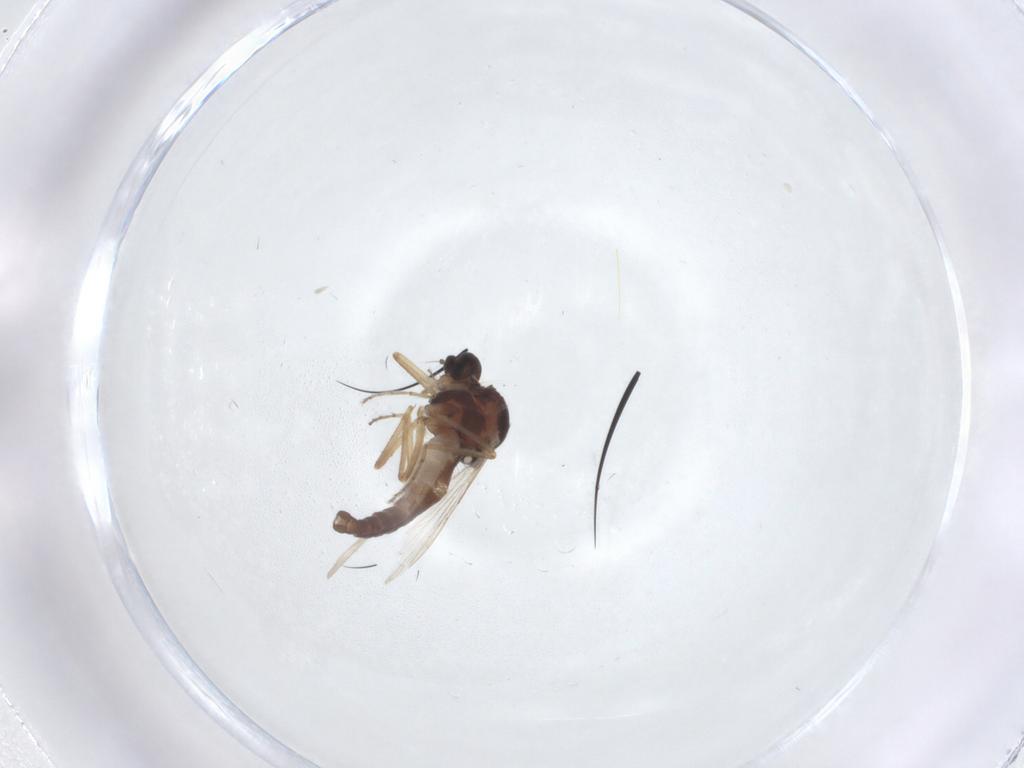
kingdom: Animalia
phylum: Arthropoda
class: Insecta
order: Diptera
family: Ceratopogonidae
